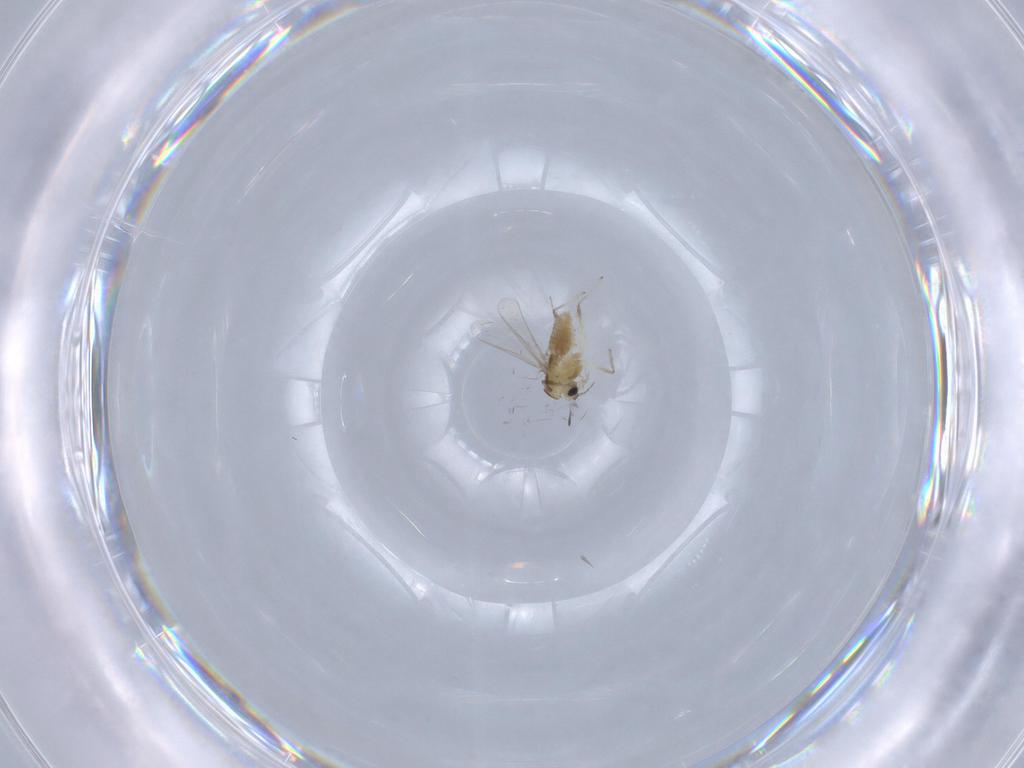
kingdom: Animalia
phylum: Arthropoda
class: Insecta
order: Diptera
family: Chironomidae
